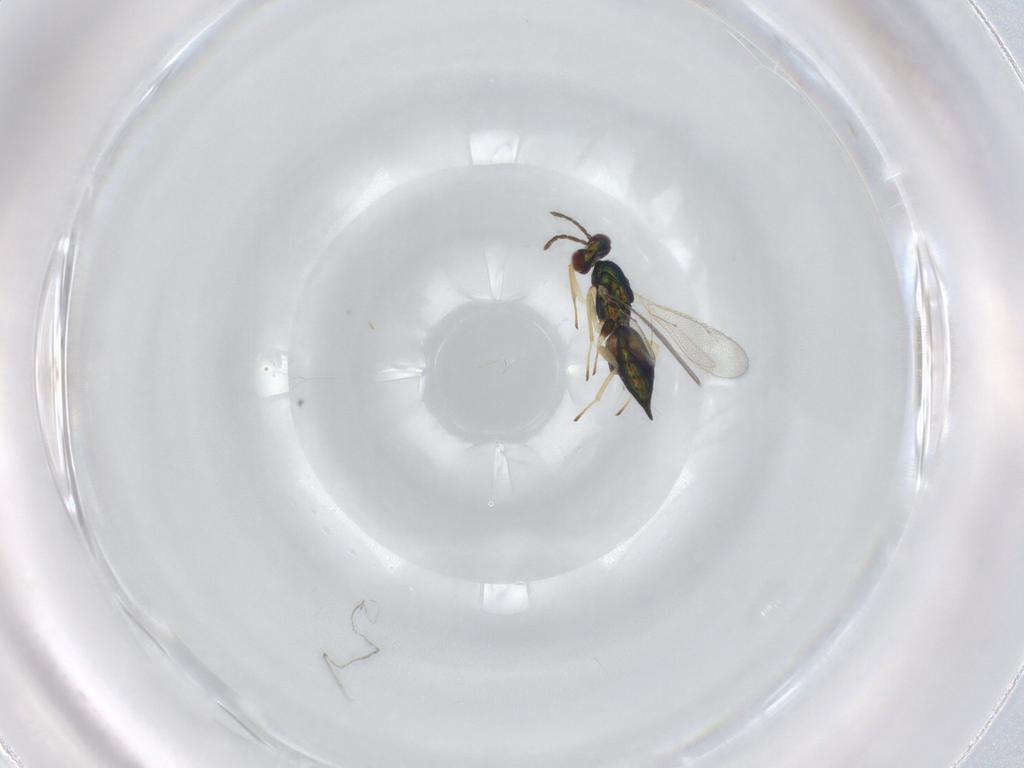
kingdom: Animalia
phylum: Arthropoda
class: Insecta
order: Hymenoptera
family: Eulophidae
